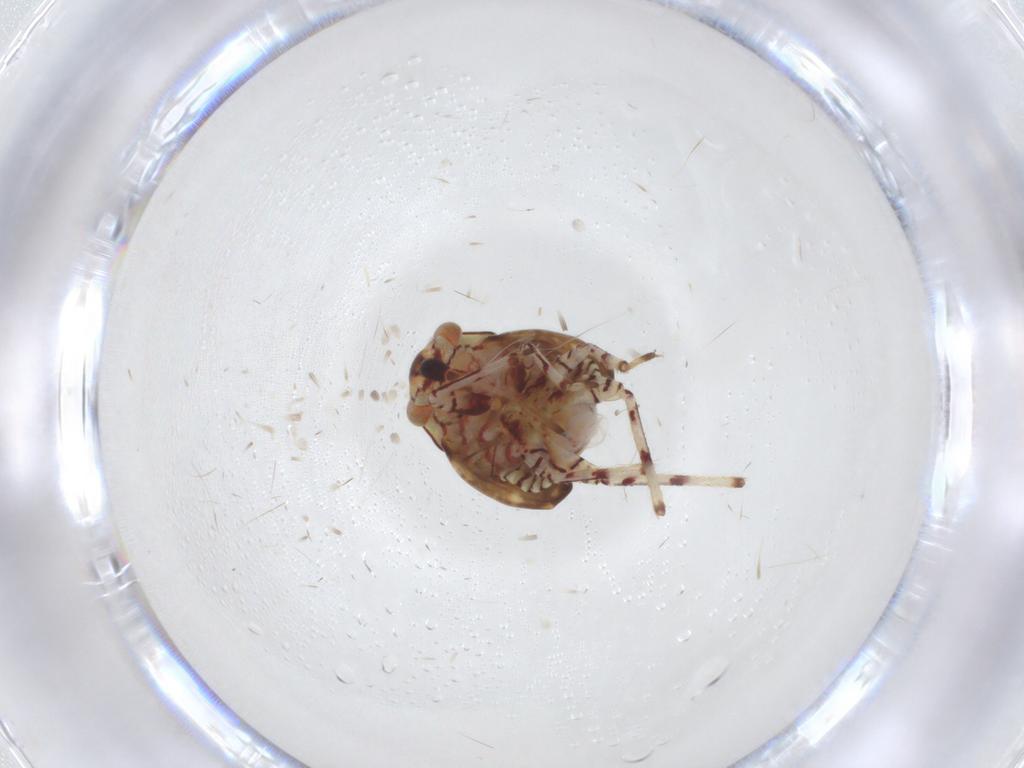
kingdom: Animalia
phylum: Arthropoda
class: Insecta
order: Hemiptera
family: Miridae
